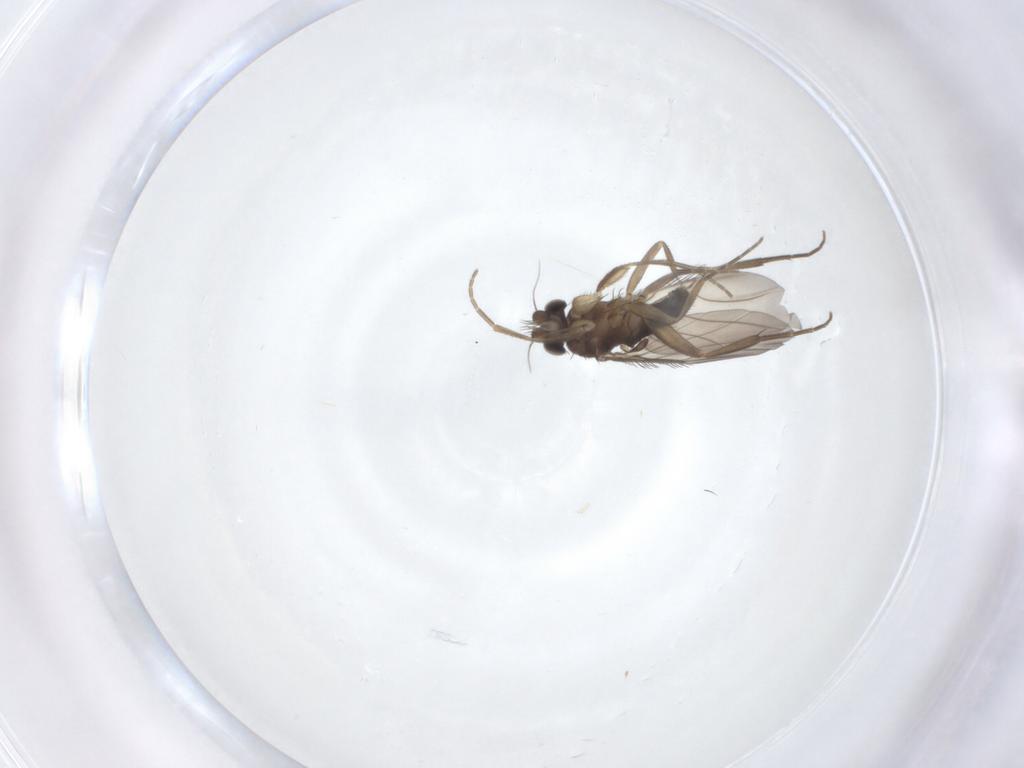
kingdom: Animalia
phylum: Arthropoda
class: Insecta
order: Diptera
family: Phoridae
